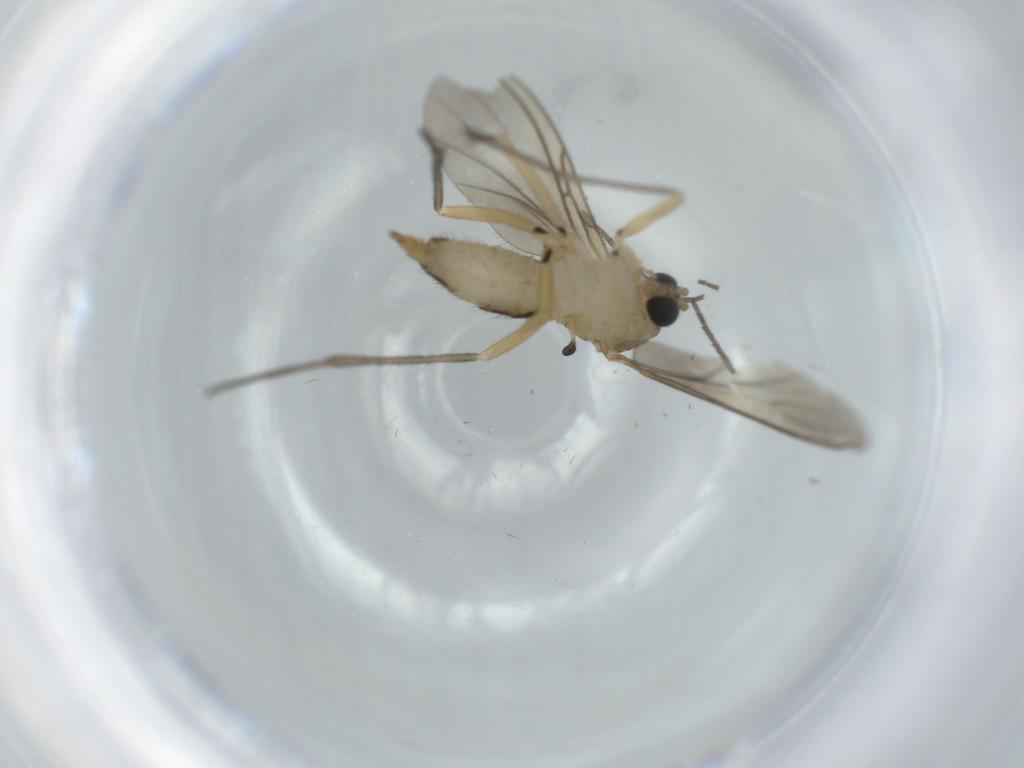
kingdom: Animalia
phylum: Arthropoda
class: Insecta
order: Diptera
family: Sciaridae
